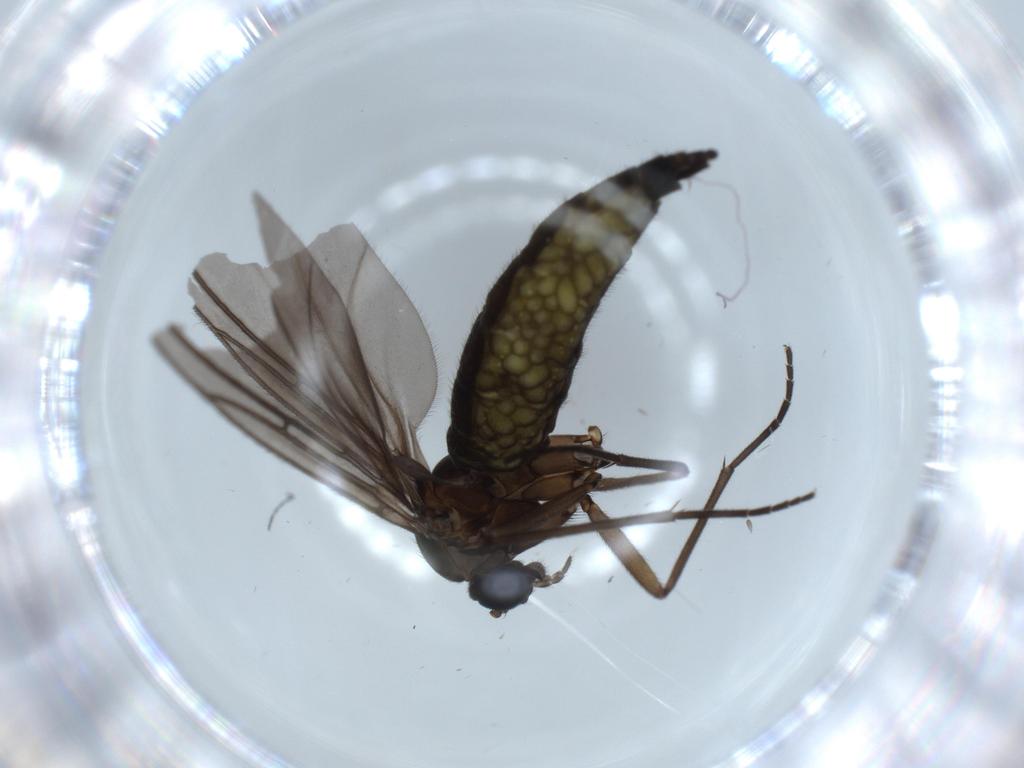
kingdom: Animalia
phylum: Arthropoda
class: Insecta
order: Diptera
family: Sciaridae
